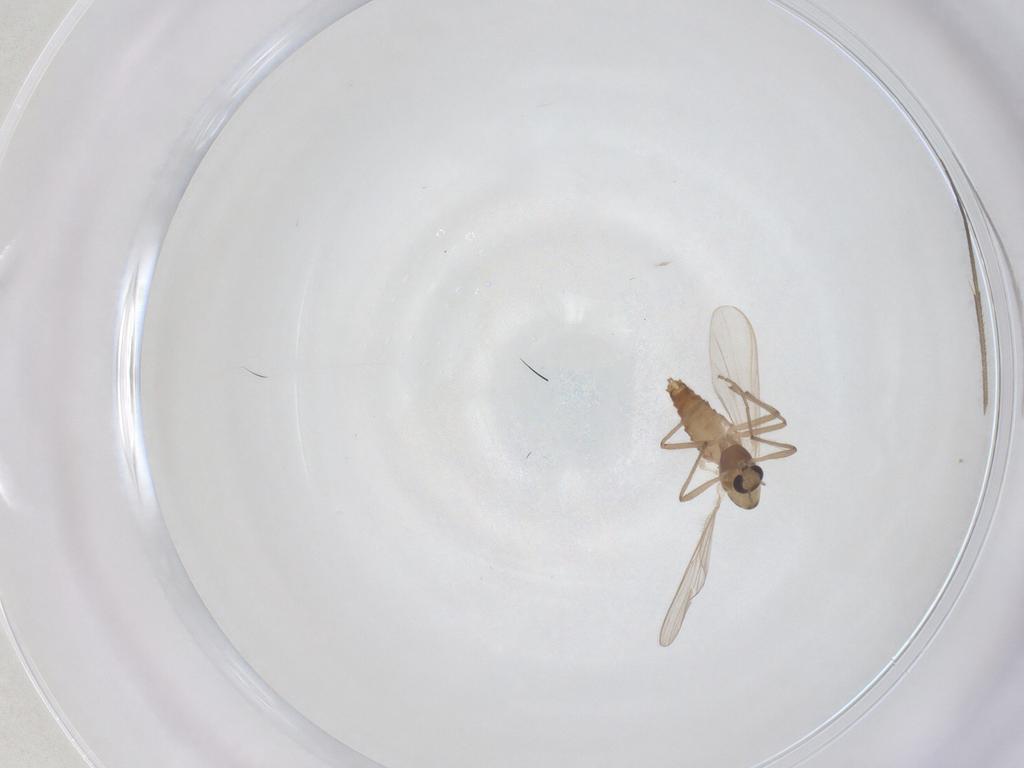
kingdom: Animalia
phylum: Arthropoda
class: Insecta
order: Diptera
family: Chironomidae
